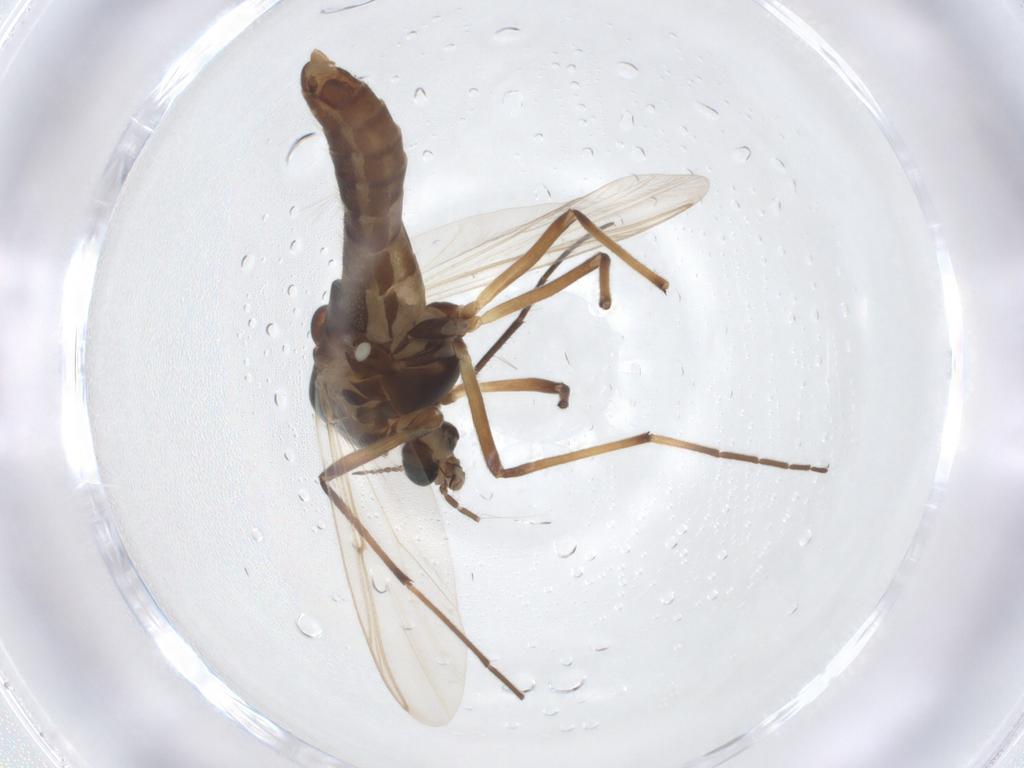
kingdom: Animalia
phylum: Arthropoda
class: Insecta
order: Diptera
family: Chironomidae
